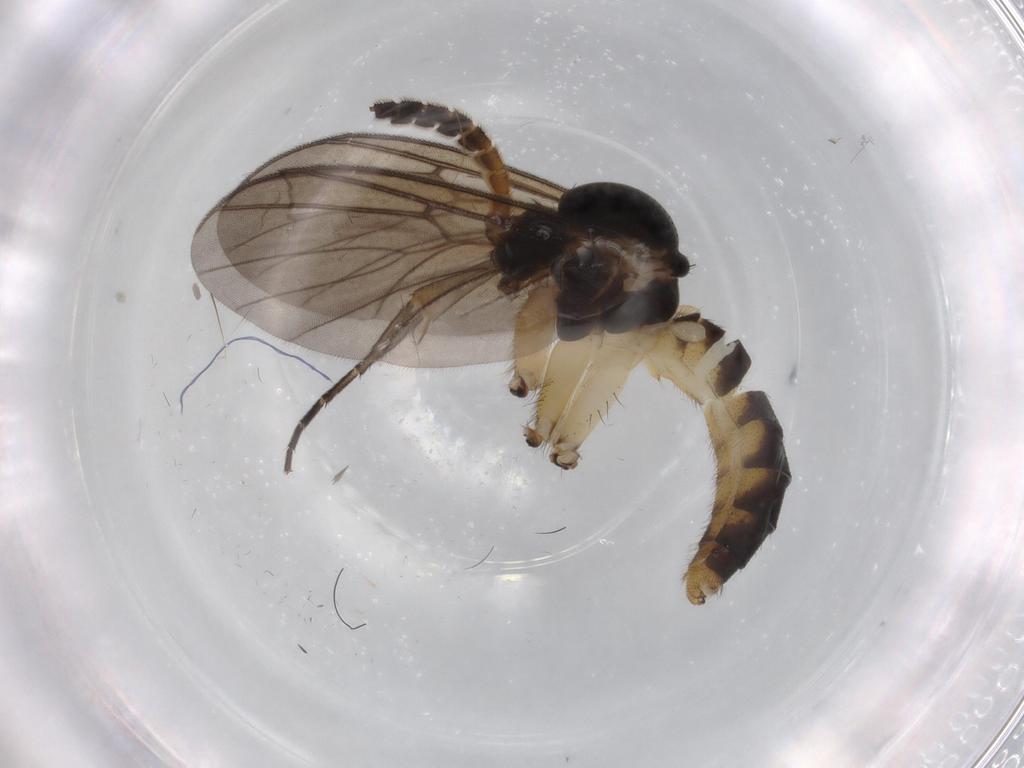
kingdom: Animalia
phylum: Arthropoda
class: Insecta
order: Diptera
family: Mycetophilidae
